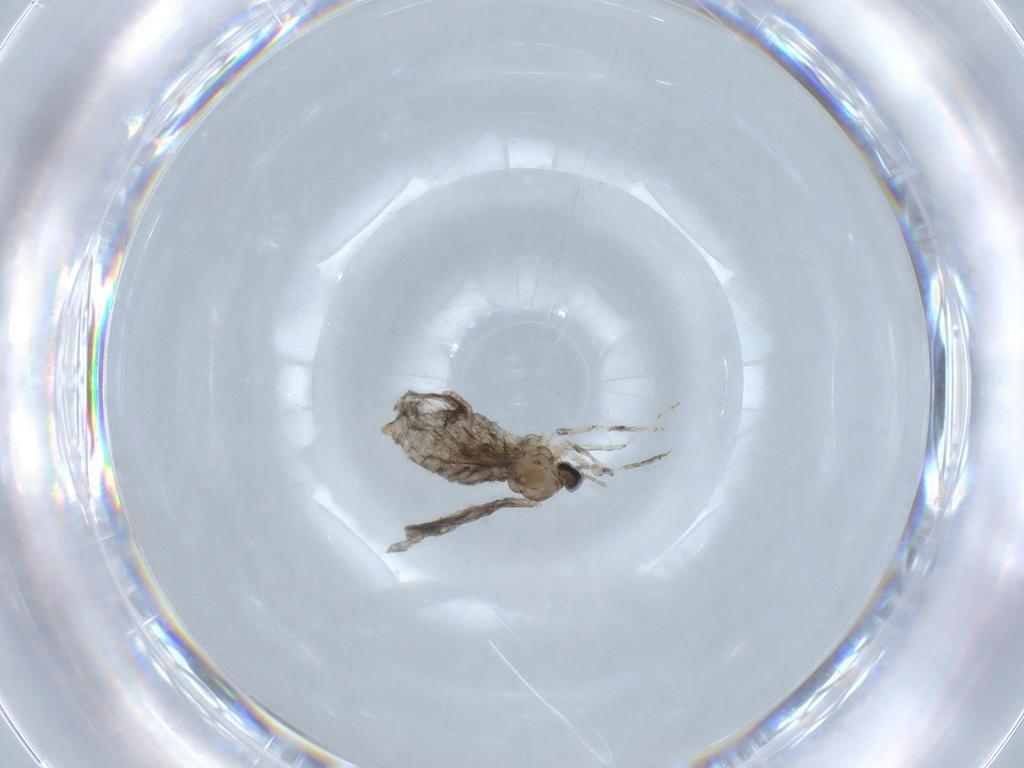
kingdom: Animalia
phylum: Arthropoda
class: Insecta
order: Diptera
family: Cecidomyiidae
